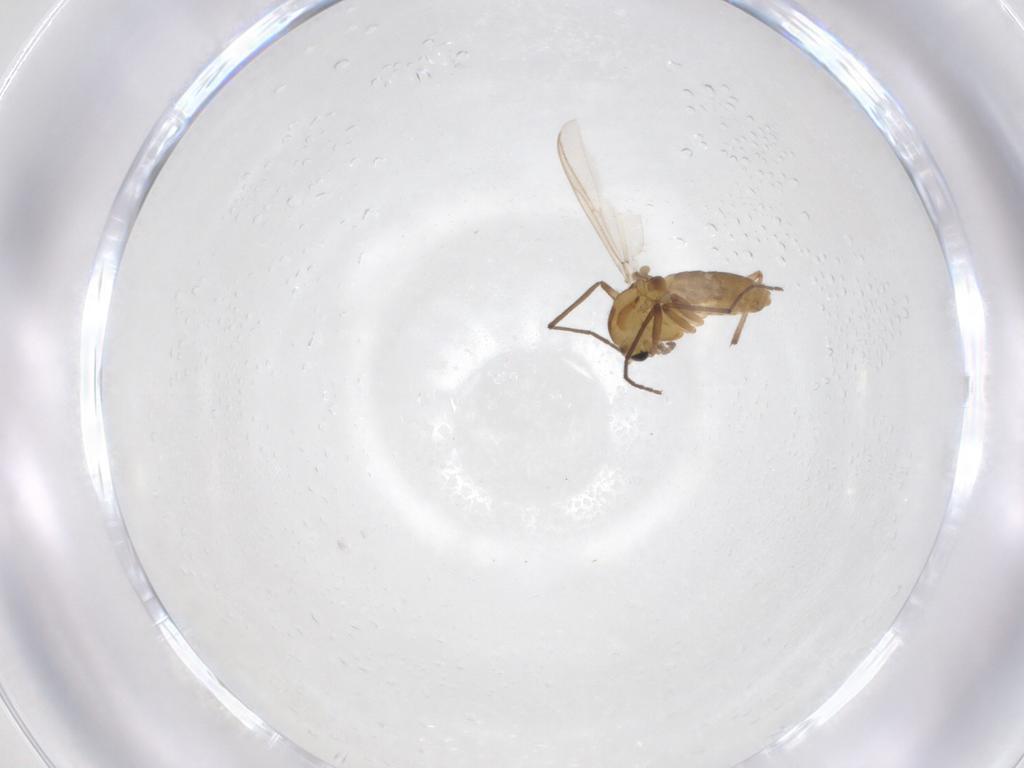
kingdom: Animalia
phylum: Arthropoda
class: Insecta
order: Diptera
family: Chironomidae
